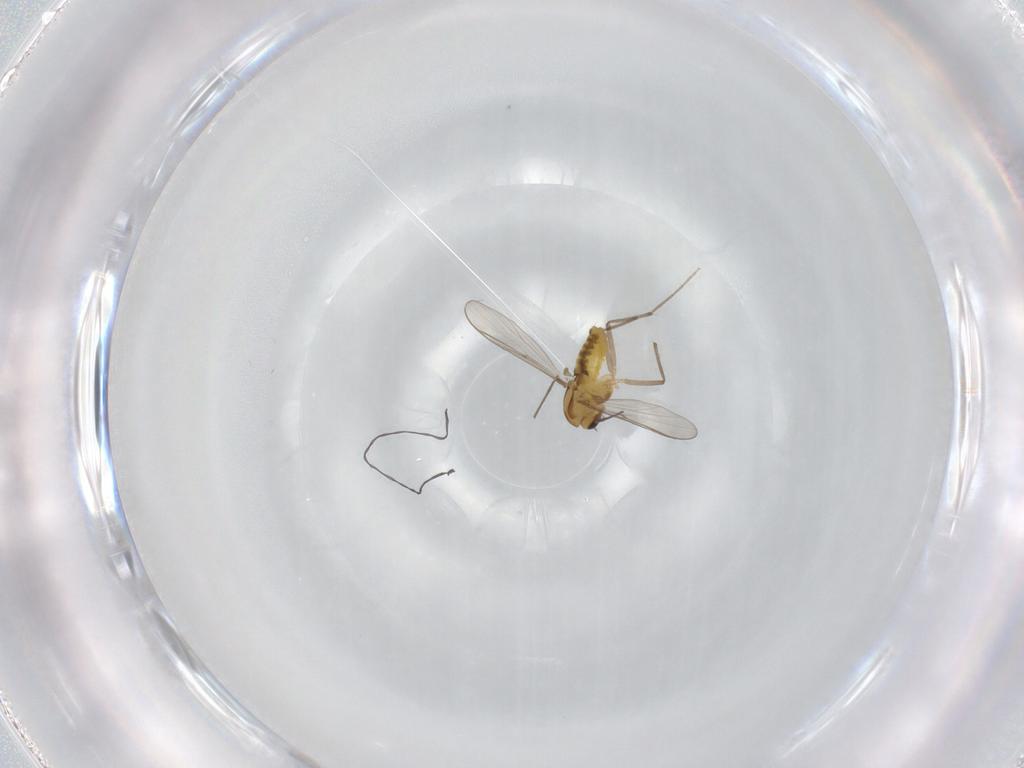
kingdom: Animalia
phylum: Arthropoda
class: Insecta
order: Diptera
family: Chironomidae
